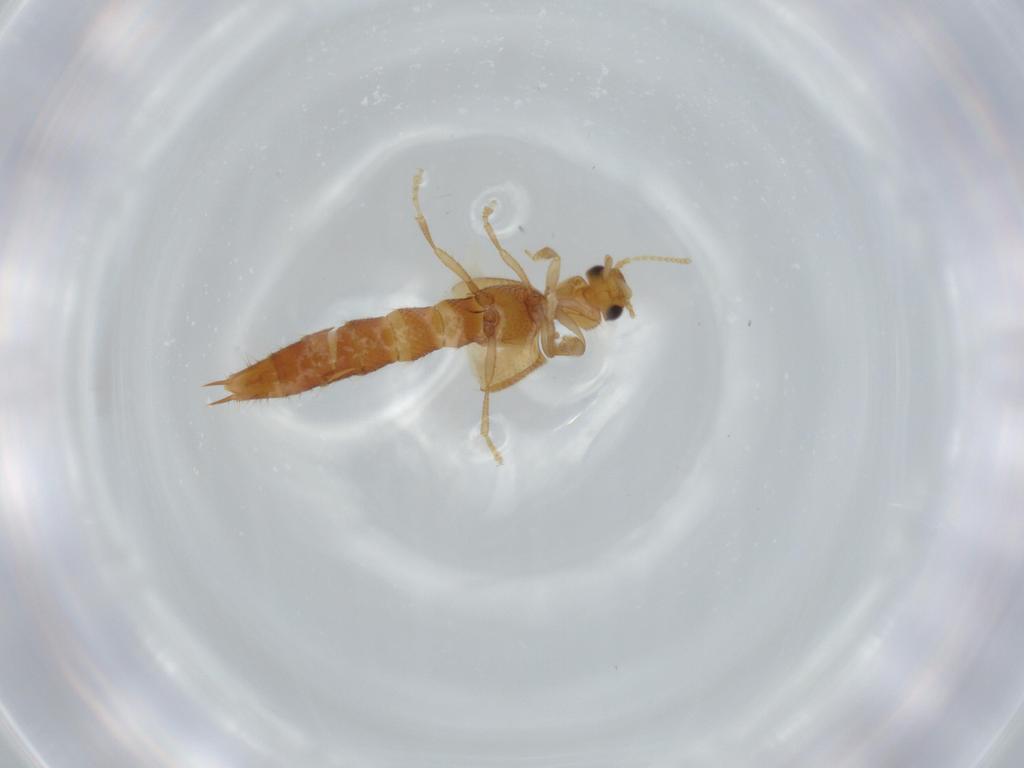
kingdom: Animalia
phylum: Arthropoda
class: Insecta
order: Coleoptera
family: Staphylinidae
